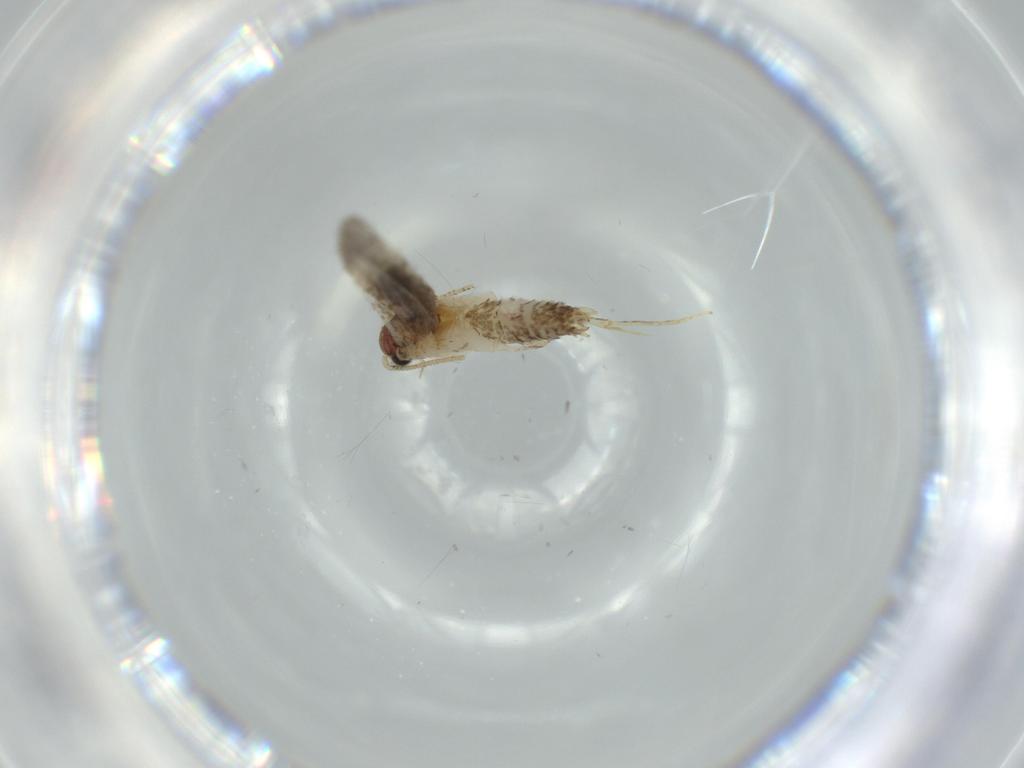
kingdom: Animalia
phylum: Arthropoda
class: Insecta
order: Lepidoptera
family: Tineidae
